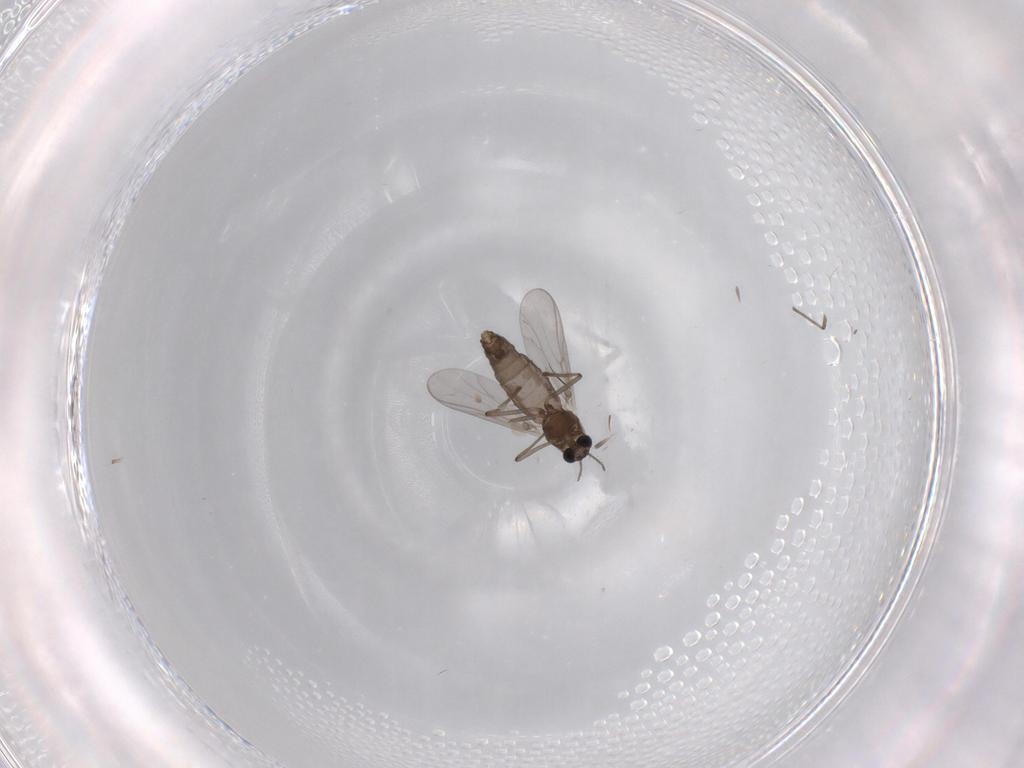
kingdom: Animalia
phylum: Arthropoda
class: Insecta
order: Diptera
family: Chironomidae
